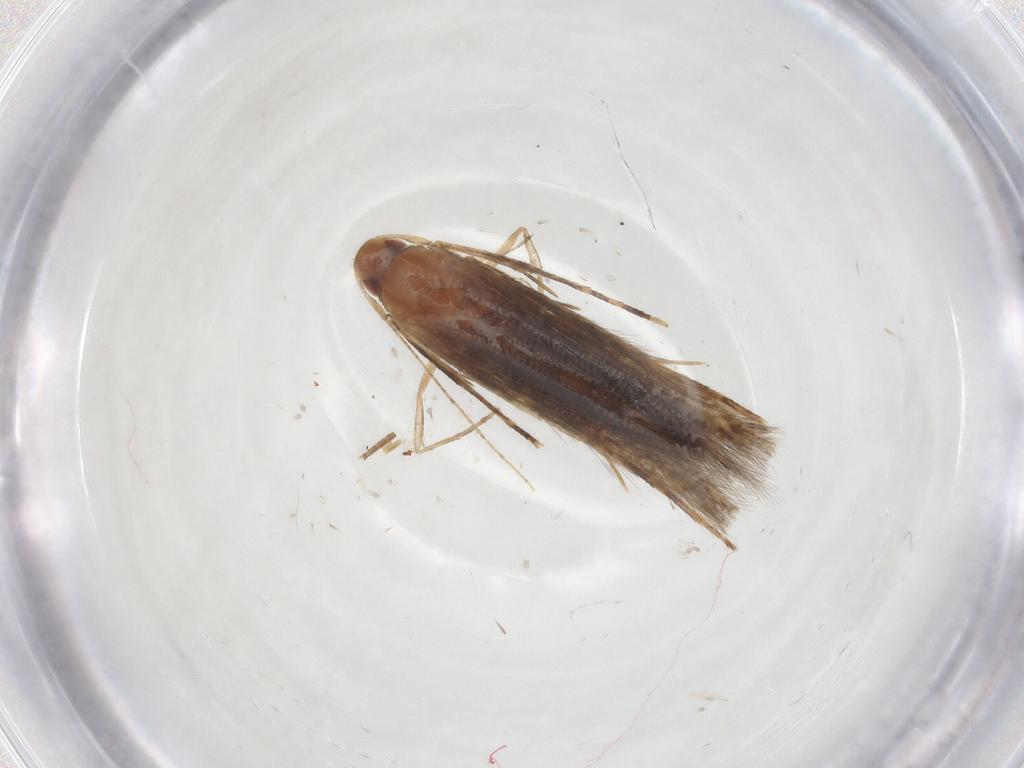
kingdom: Animalia
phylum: Arthropoda
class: Insecta
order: Lepidoptera
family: Cosmopterigidae
